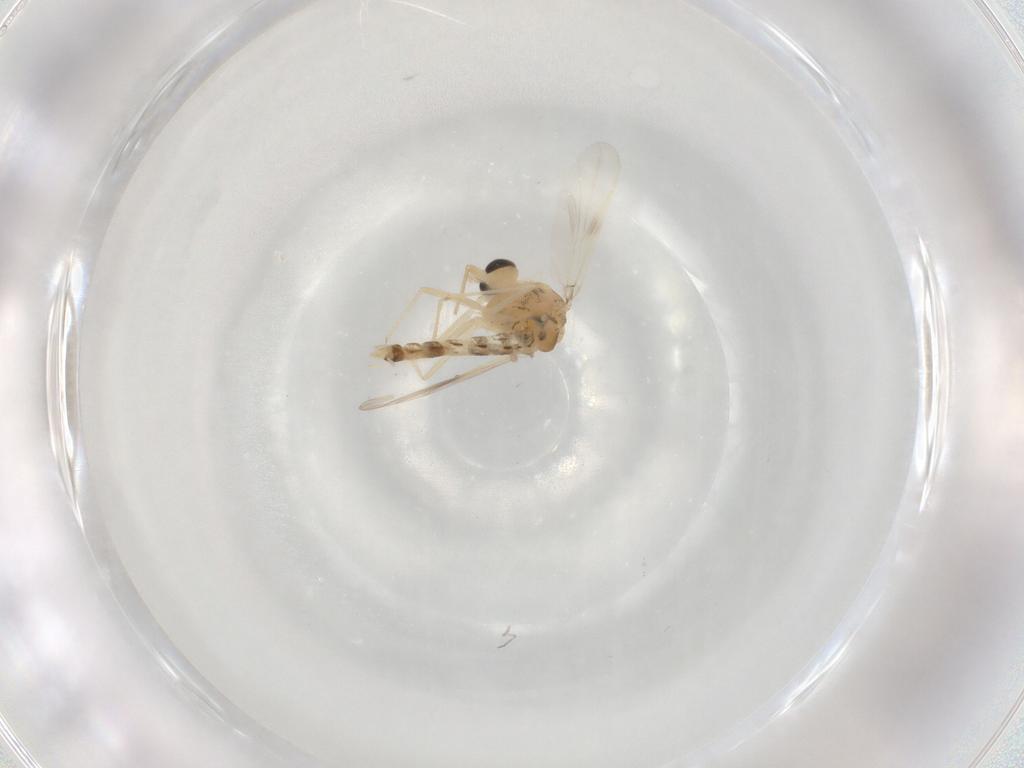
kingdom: Animalia
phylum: Arthropoda
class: Insecta
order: Diptera
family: Chironomidae
